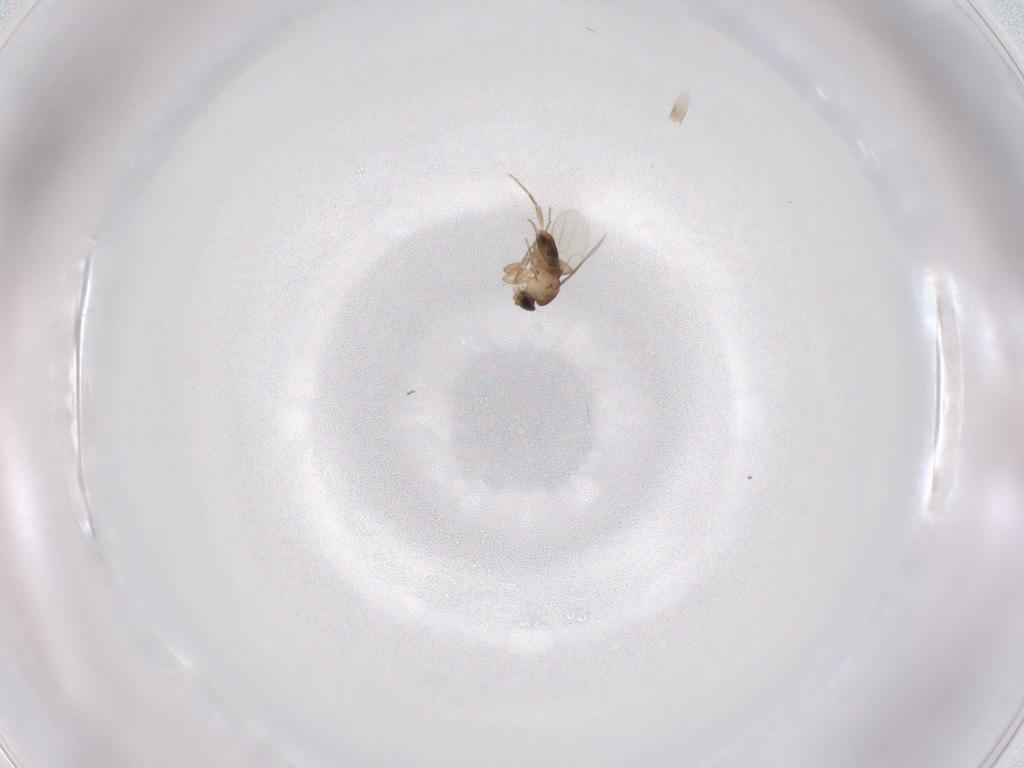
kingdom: Animalia
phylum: Arthropoda
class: Insecta
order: Diptera
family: Phoridae
